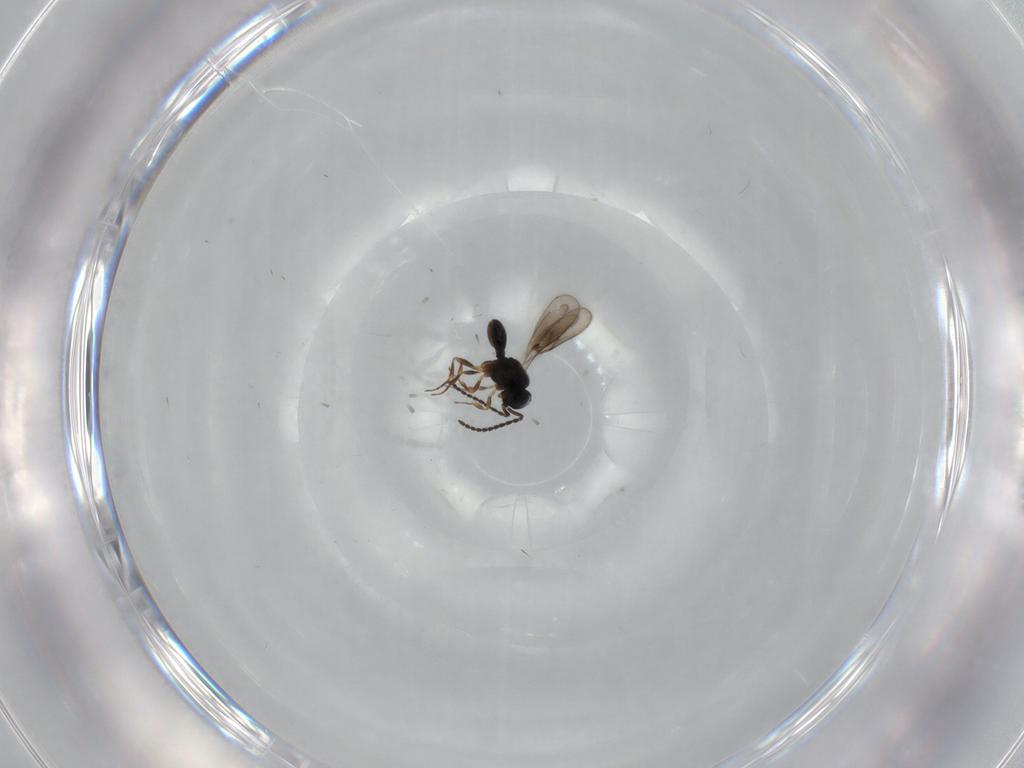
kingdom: Animalia
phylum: Arthropoda
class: Insecta
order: Hymenoptera
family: Scelionidae
